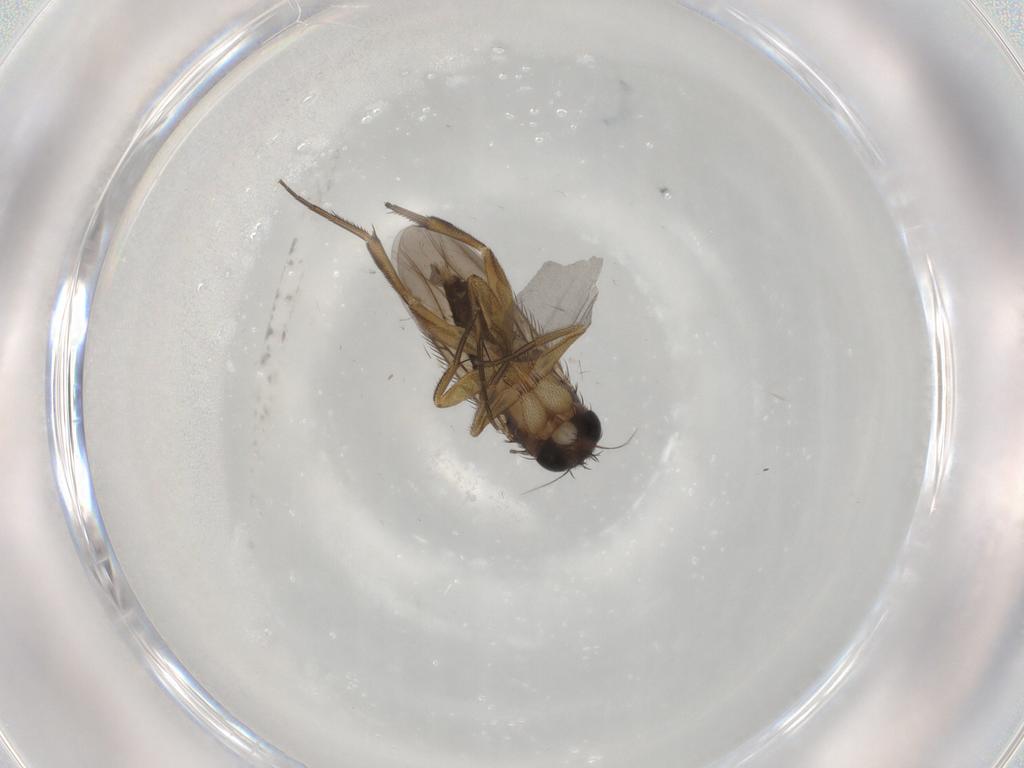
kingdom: Animalia
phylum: Arthropoda
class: Insecta
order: Diptera
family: Phoridae
